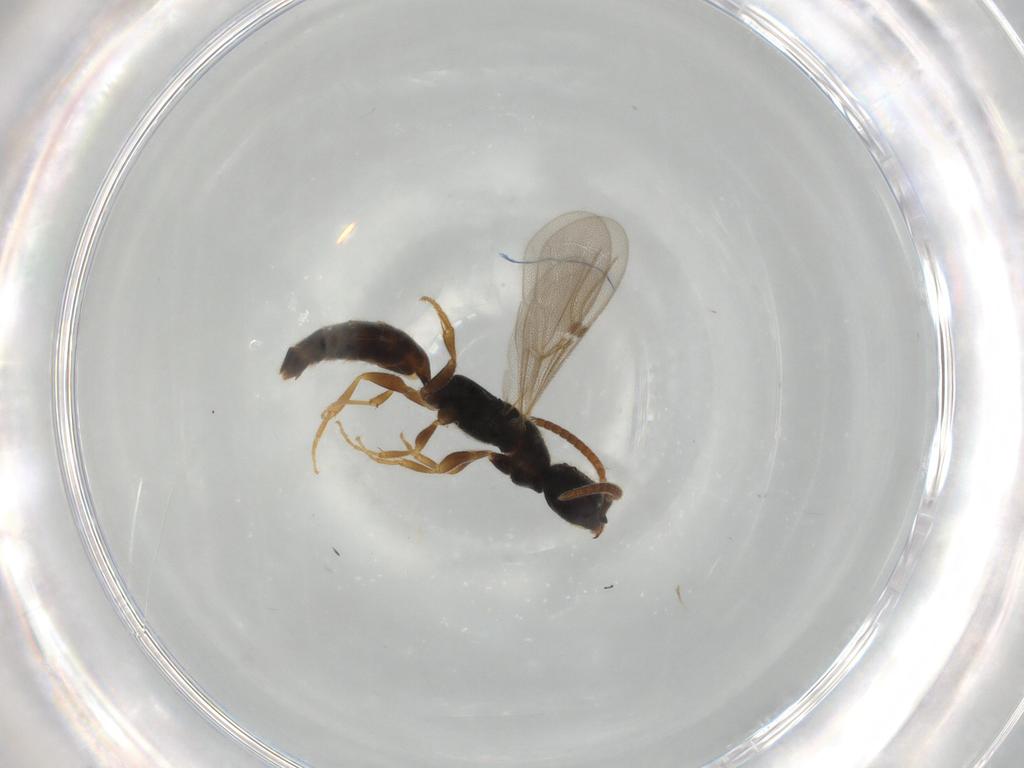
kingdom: Animalia
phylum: Arthropoda
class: Insecta
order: Hymenoptera
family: Bethylidae
